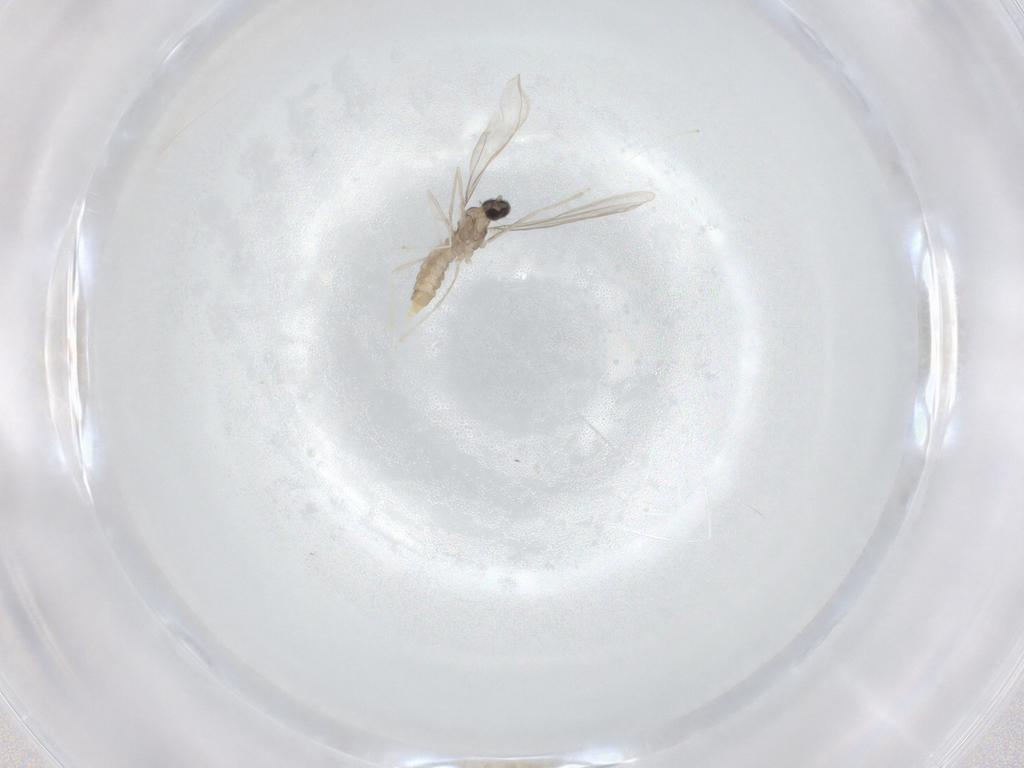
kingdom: Animalia
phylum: Arthropoda
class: Insecta
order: Diptera
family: Cecidomyiidae
